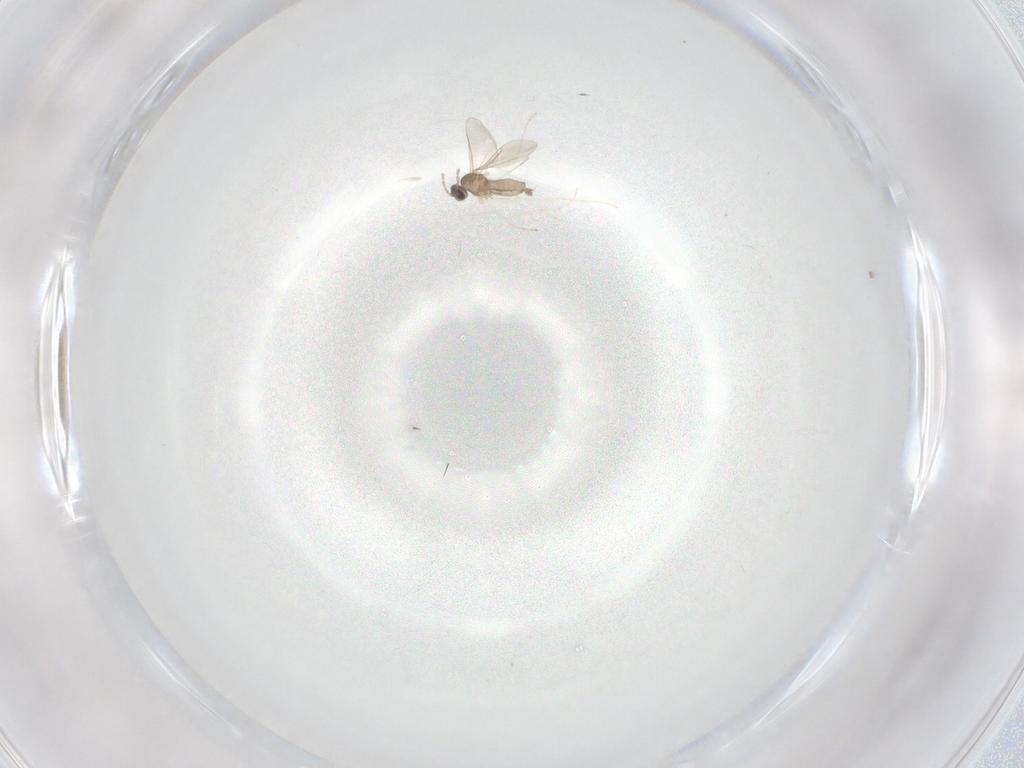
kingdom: Animalia
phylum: Arthropoda
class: Insecta
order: Diptera
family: Cecidomyiidae
